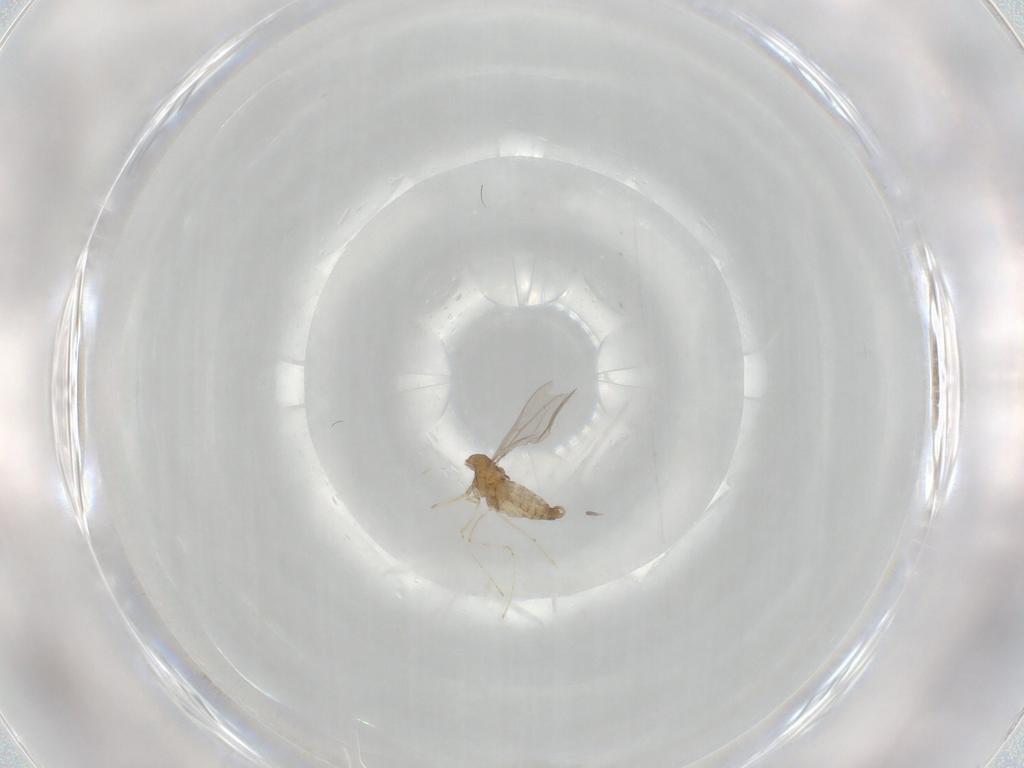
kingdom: Animalia
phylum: Arthropoda
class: Insecta
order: Diptera
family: Cecidomyiidae
